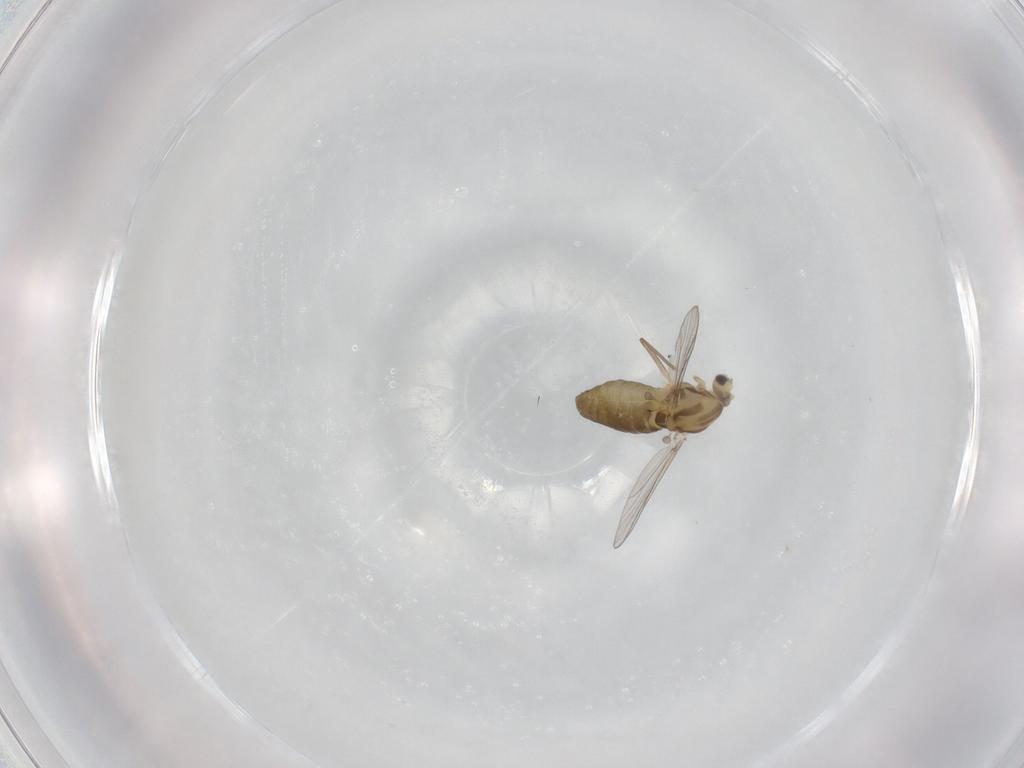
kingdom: Animalia
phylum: Arthropoda
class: Insecta
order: Diptera
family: Chironomidae
